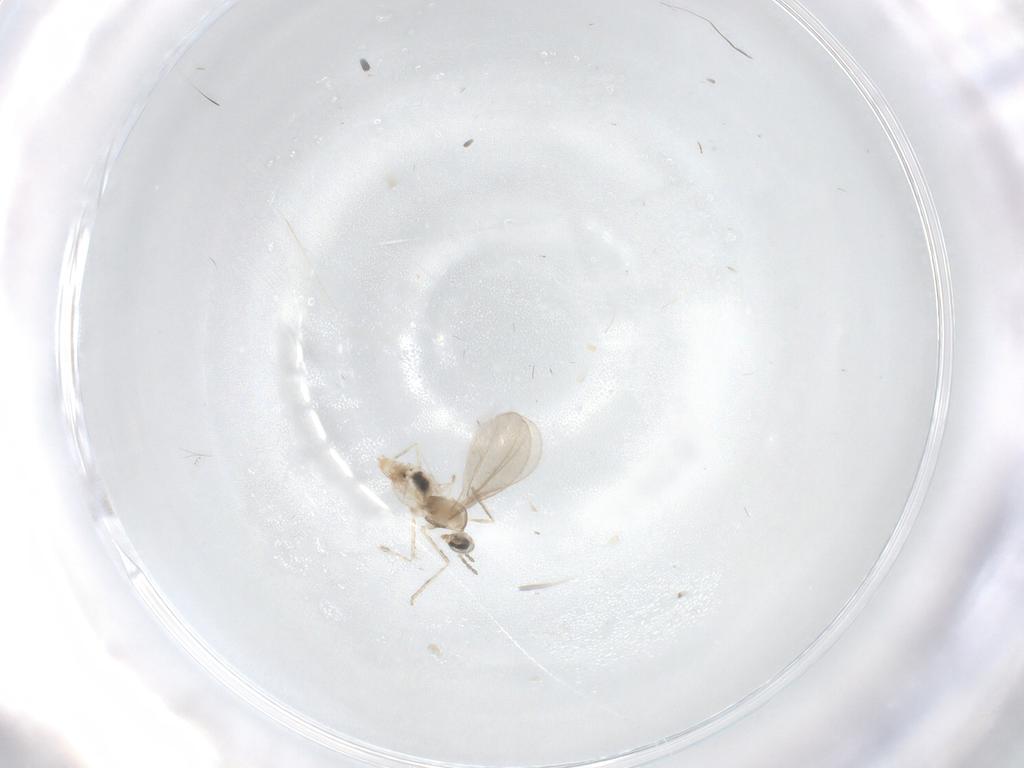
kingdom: Animalia
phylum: Arthropoda
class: Insecta
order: Diptera
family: Cecidomyiidae
